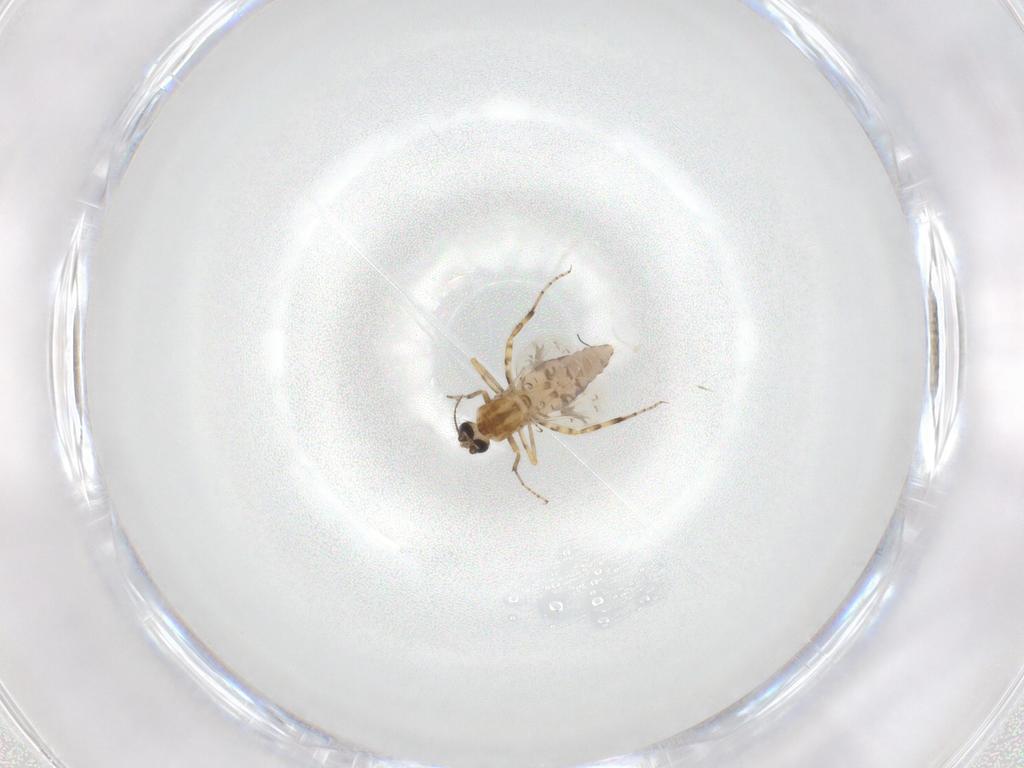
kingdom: Animalia
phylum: Arthropoda
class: Insecta
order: Diptera
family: Ceratopogonidae
